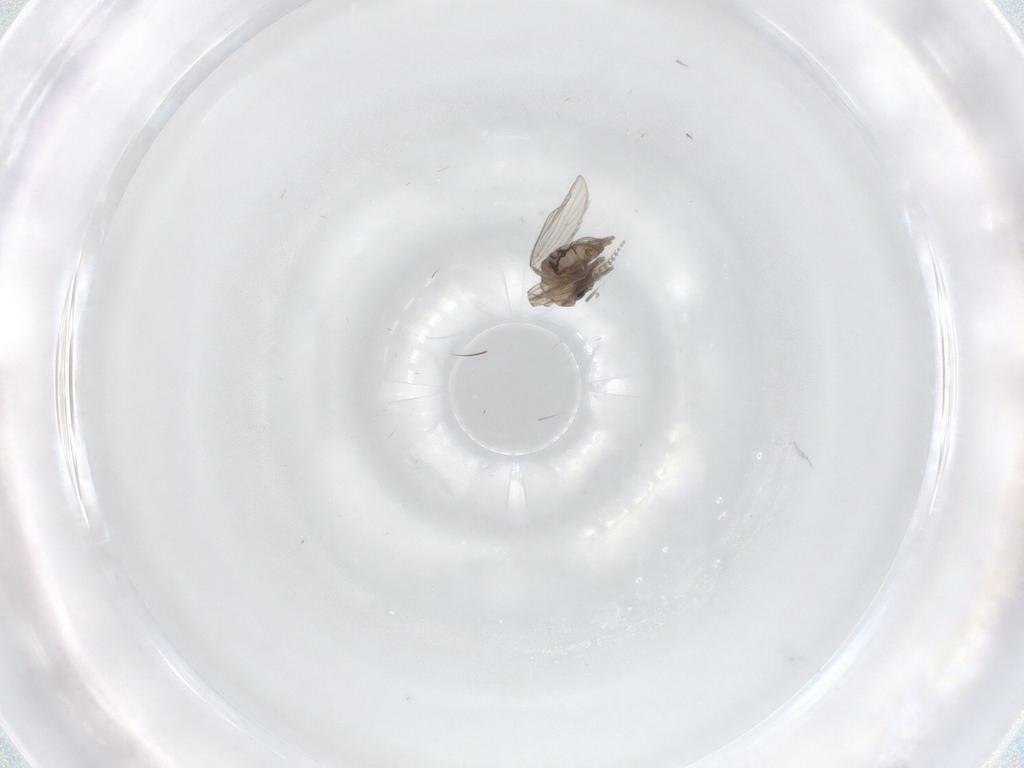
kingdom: Animalia
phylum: Arthropoda
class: Insecta
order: Diptera
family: Psychodidae
